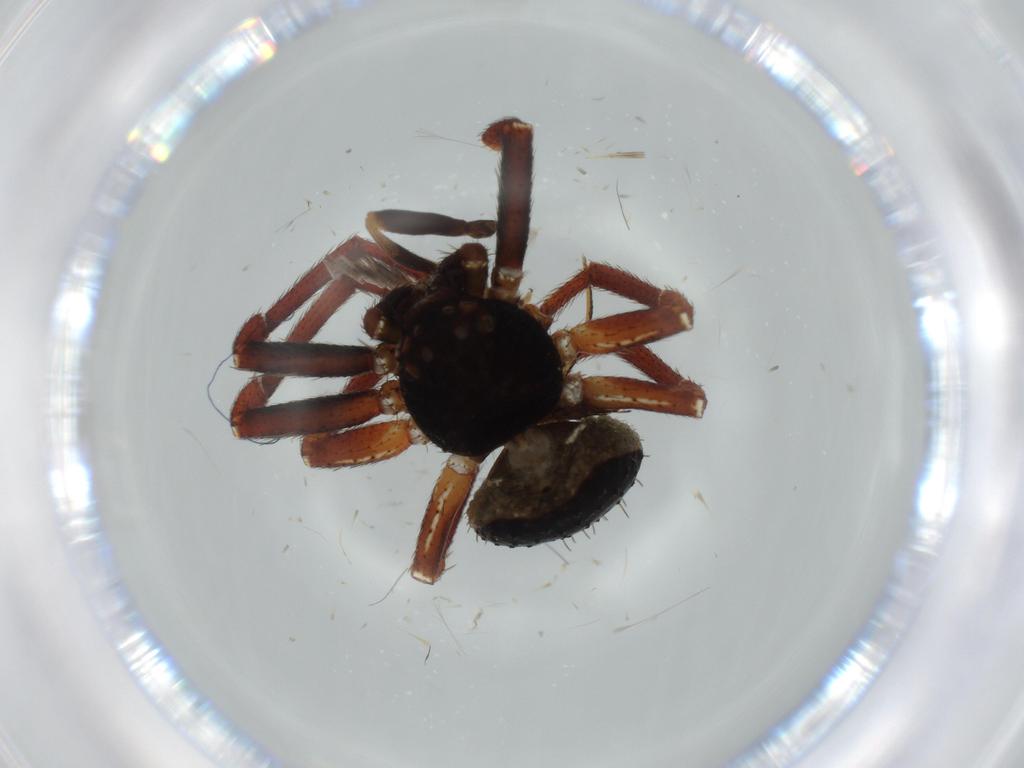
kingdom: Animalia
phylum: Arthropoda
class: Arachnida
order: Araneae
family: Thomisidae
